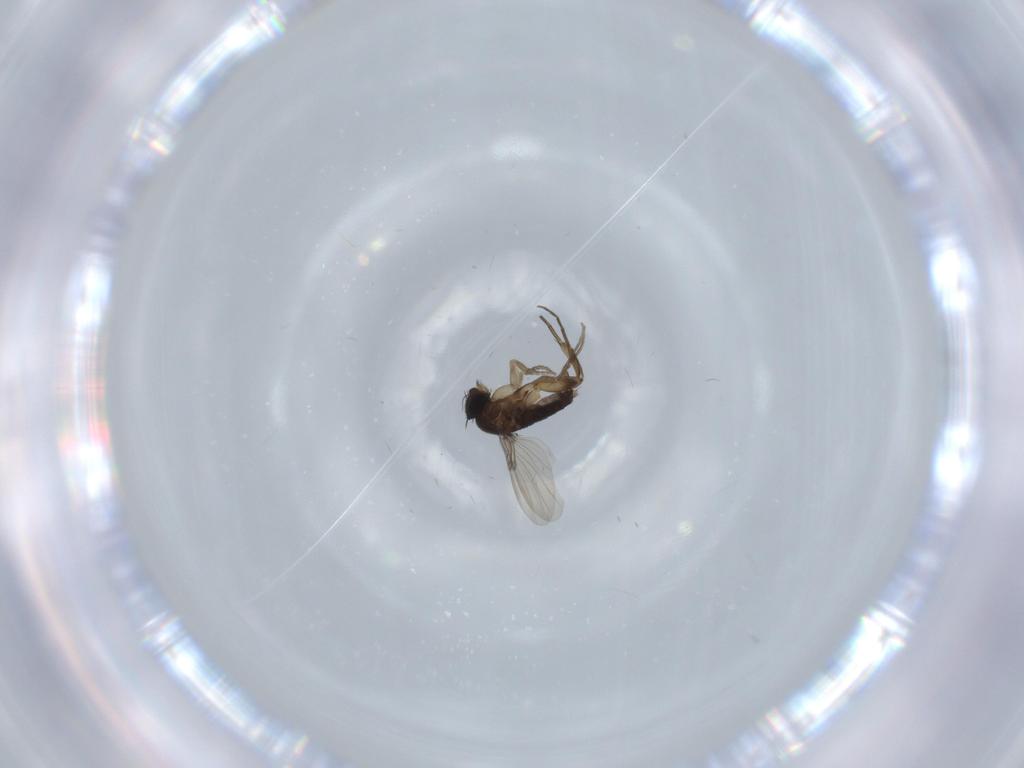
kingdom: Animalia
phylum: Arthropoda
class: Insecta
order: Diptera
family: Phoridae
